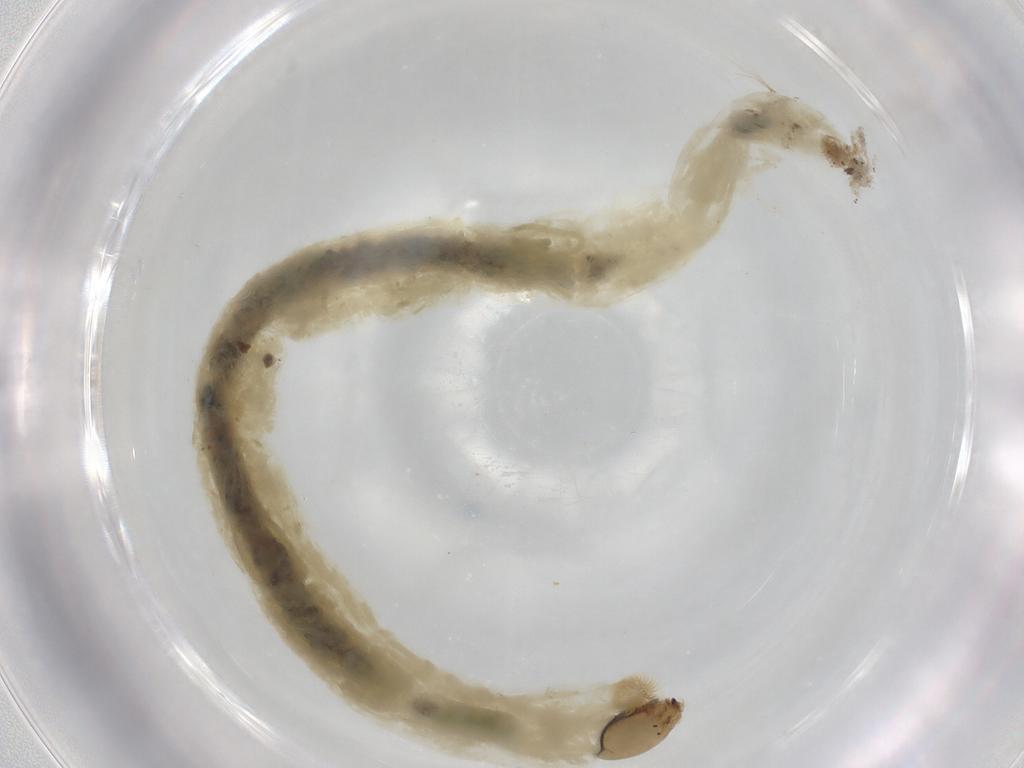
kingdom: Animalia
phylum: Arthropoda
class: Insecta
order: Diptera
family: Chironomidae
